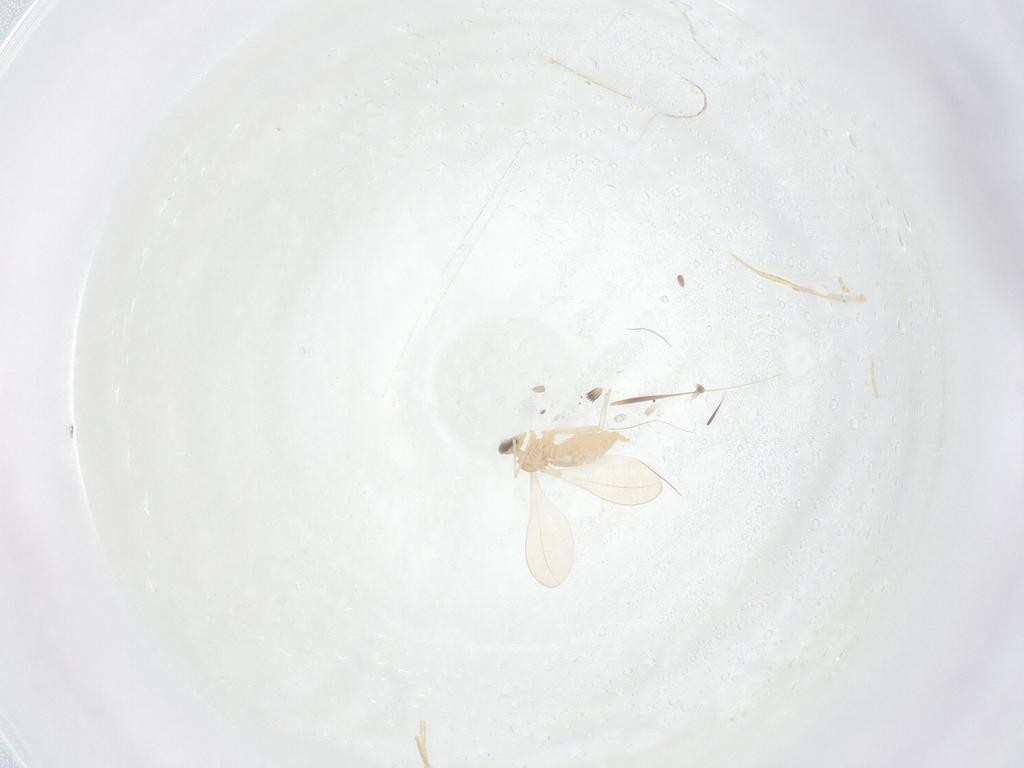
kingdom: Animalia
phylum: Arthropoda
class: Insecta
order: Diptera
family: Cecidomyiidae
